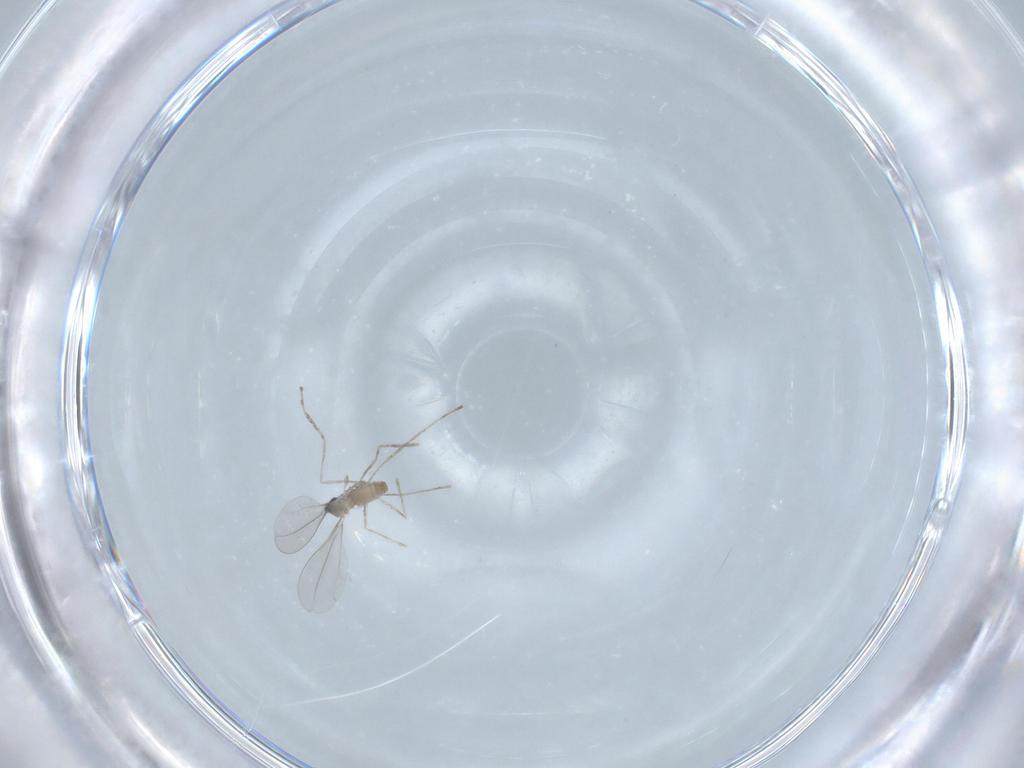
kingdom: Animalia
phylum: Arthropoda
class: Insecta
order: Diptera
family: Cecidomyiidae
